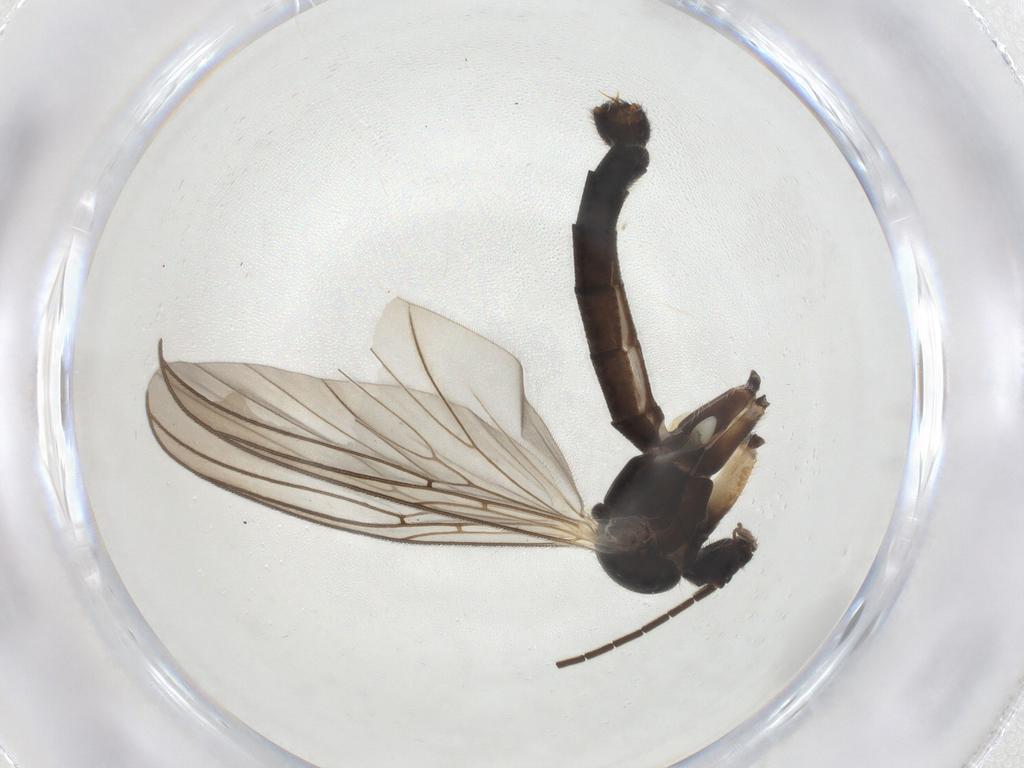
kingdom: Animalia
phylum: Arthropoda
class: Insecta
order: Diptera
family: Mycetophilidae
